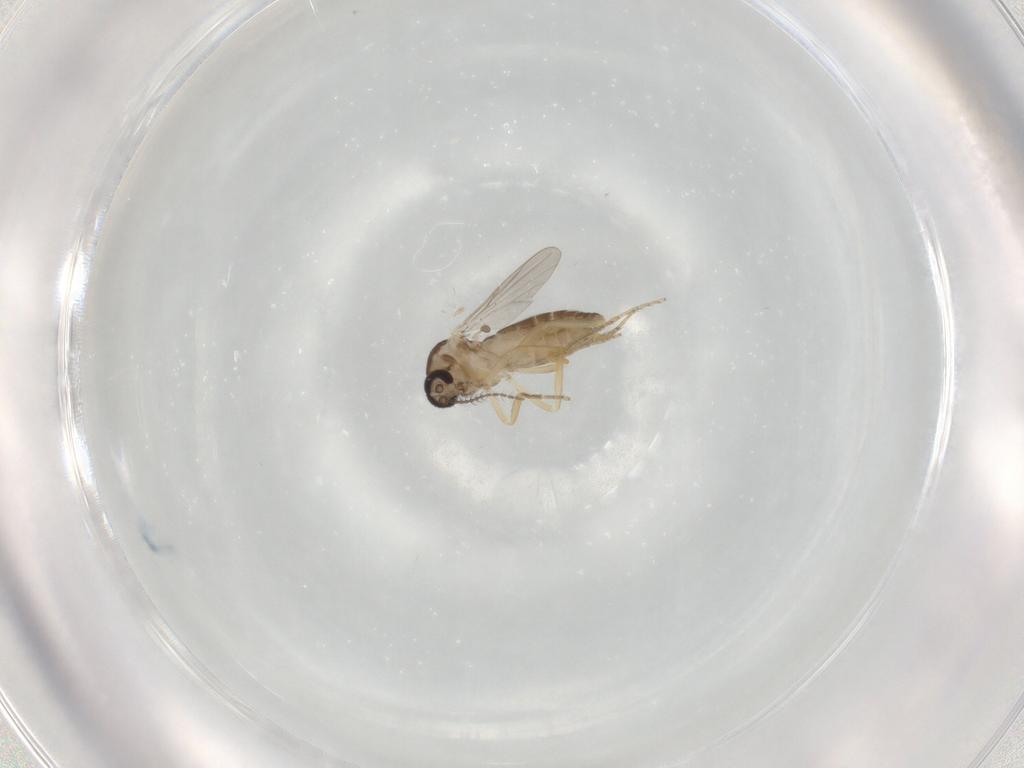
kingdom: Animalia
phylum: Arthropoda
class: Insecta
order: Diptera
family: Ceratopogonidae
